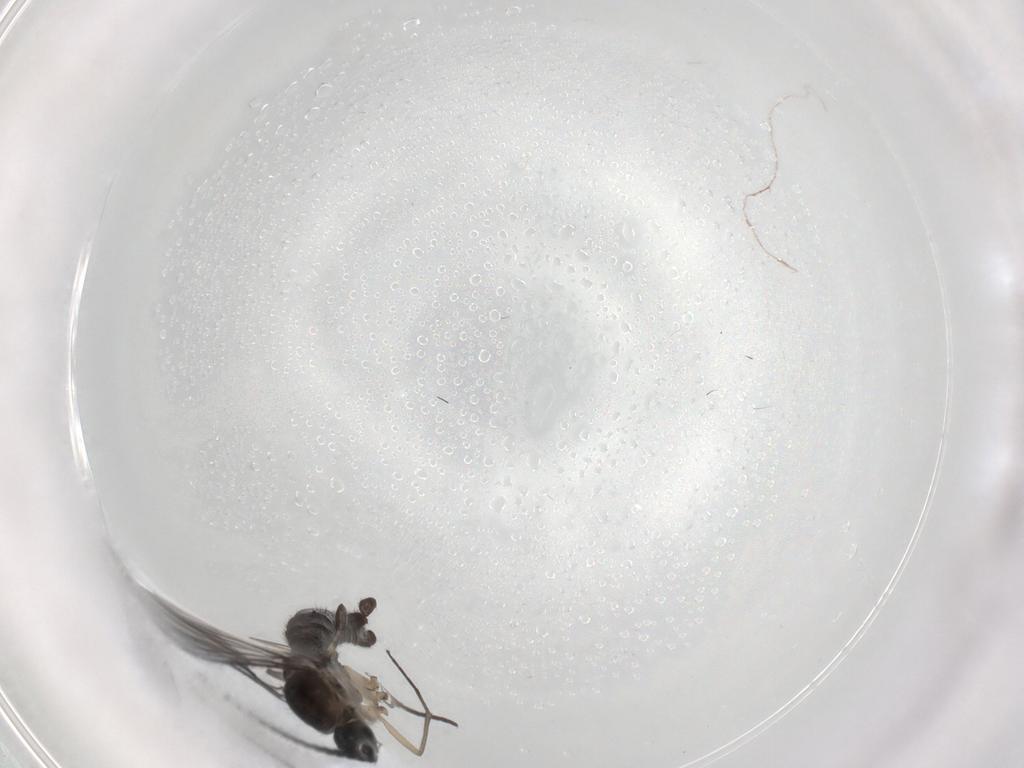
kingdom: Animalia
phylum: Arthropoda
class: Insecta
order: Diptera
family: Sciaridae
